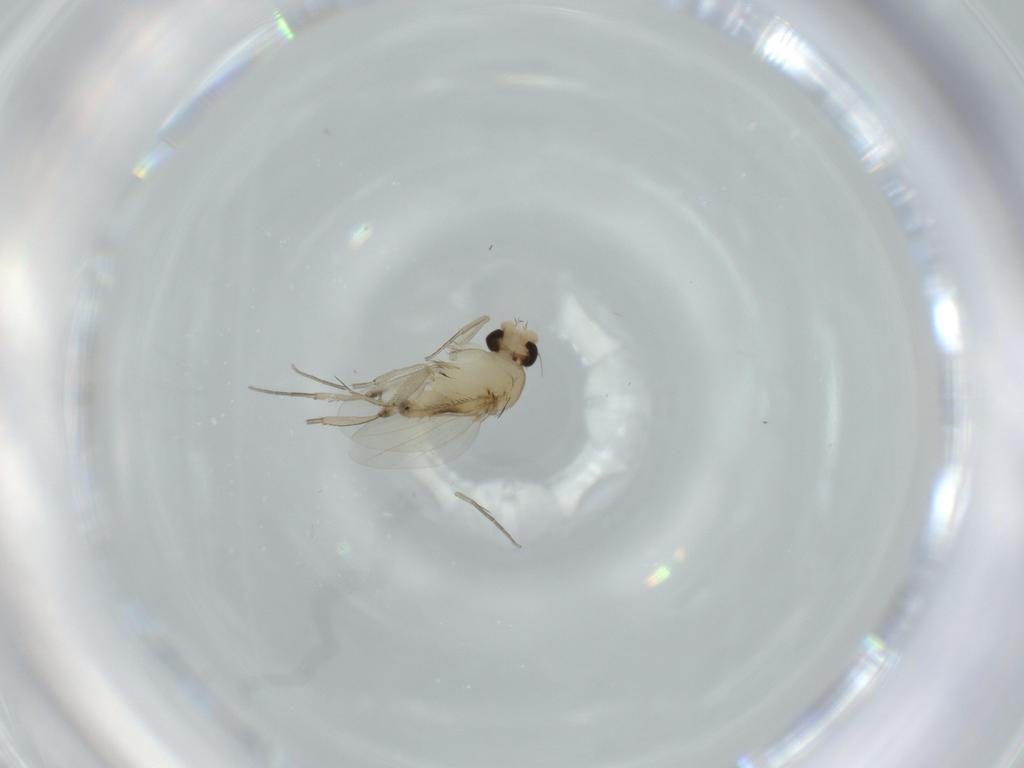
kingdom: Animalia
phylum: Arthropoda
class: Insecta
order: Diptera
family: Phoridae
